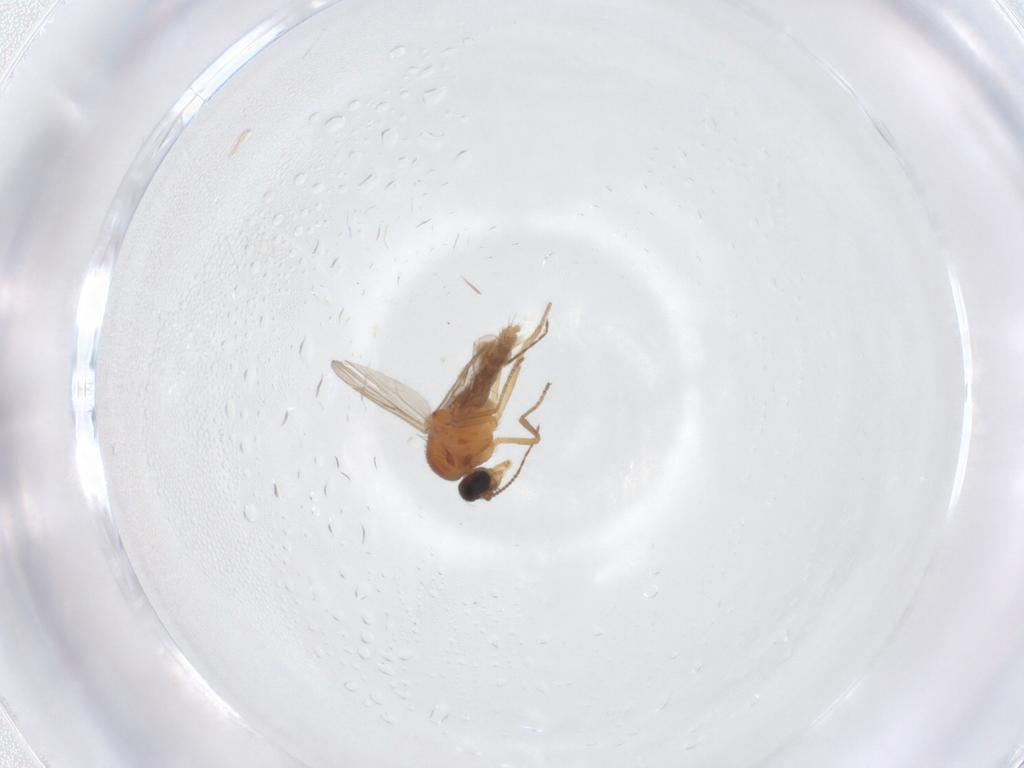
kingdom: Animalia
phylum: Arthropoda
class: Insecta
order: Diptera
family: Ceratopogonidae
